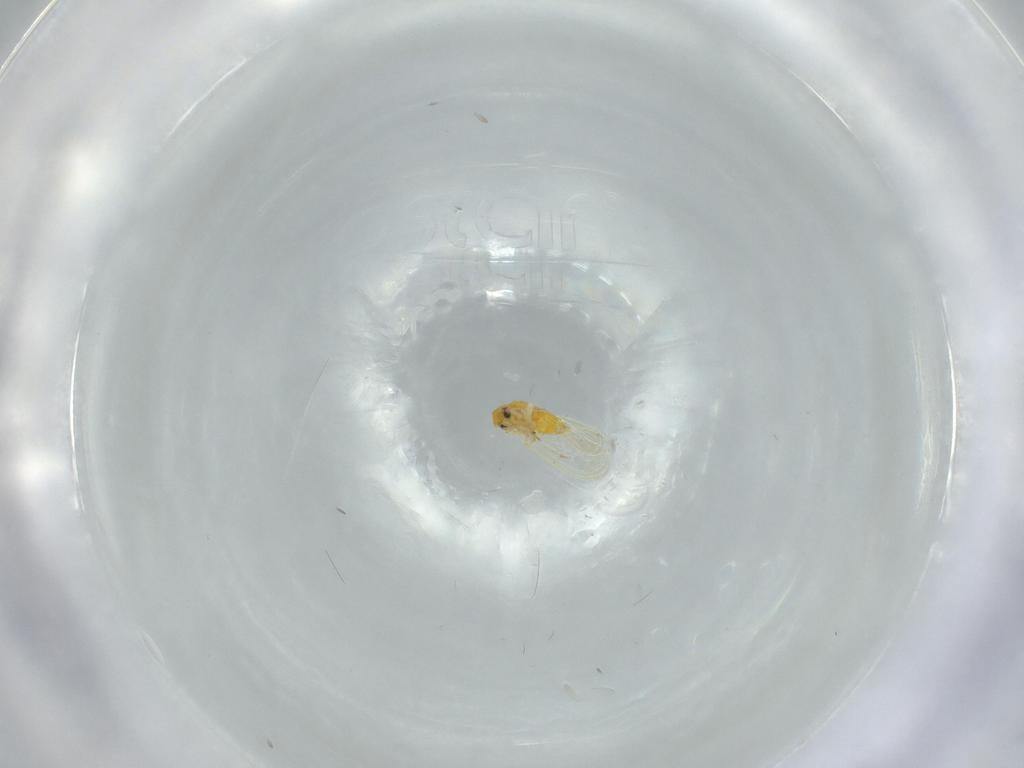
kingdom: Animalia
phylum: Arthropoda
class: Insecta
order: Hemiptera
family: Aleyrodidae
